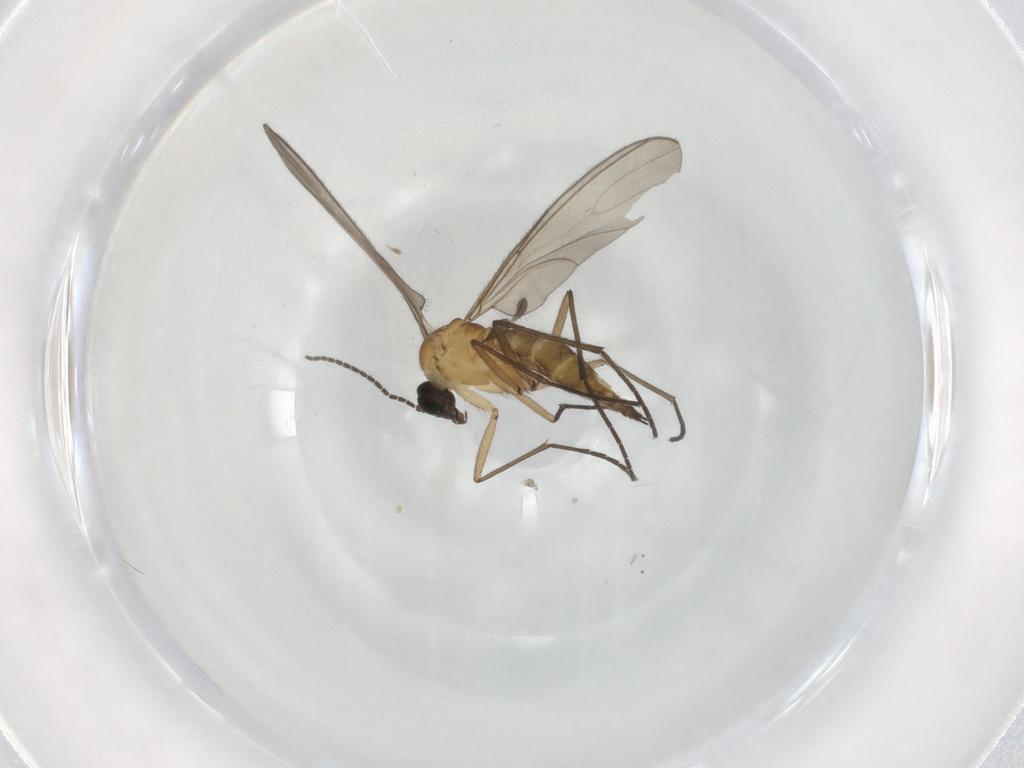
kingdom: Animalia
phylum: Arthropoda
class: Insecta
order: Diptera
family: Sciaridae
